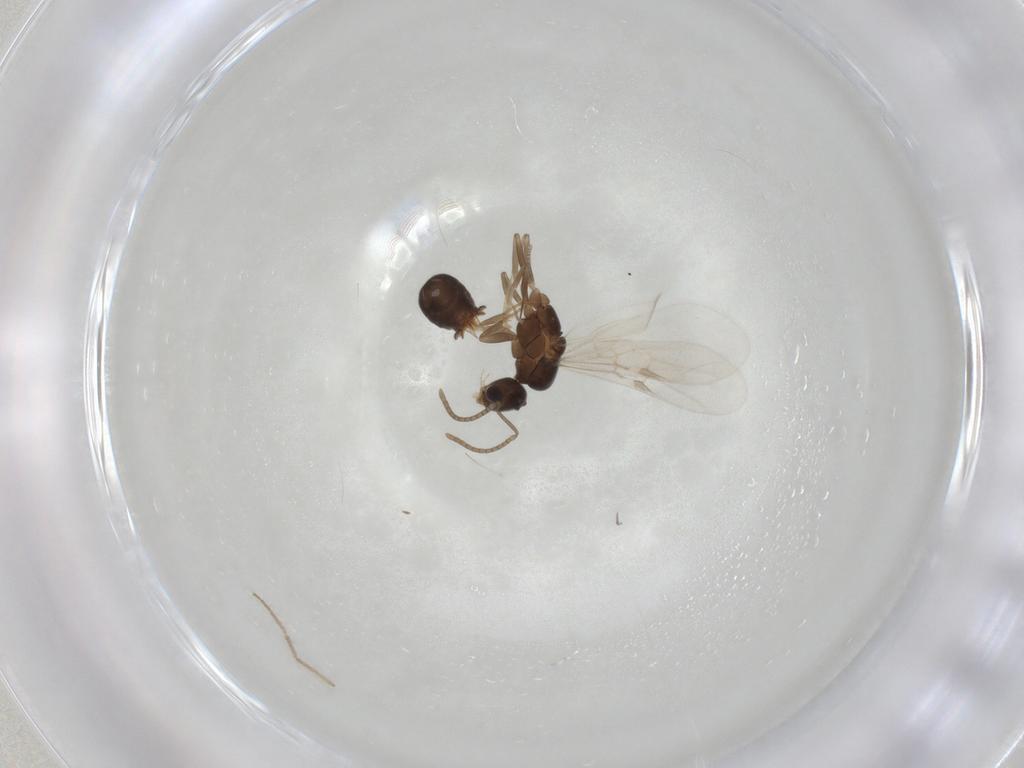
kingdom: Animalia
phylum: Arthropoda
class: Insecta
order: Hymenoptera
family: Formicidae
